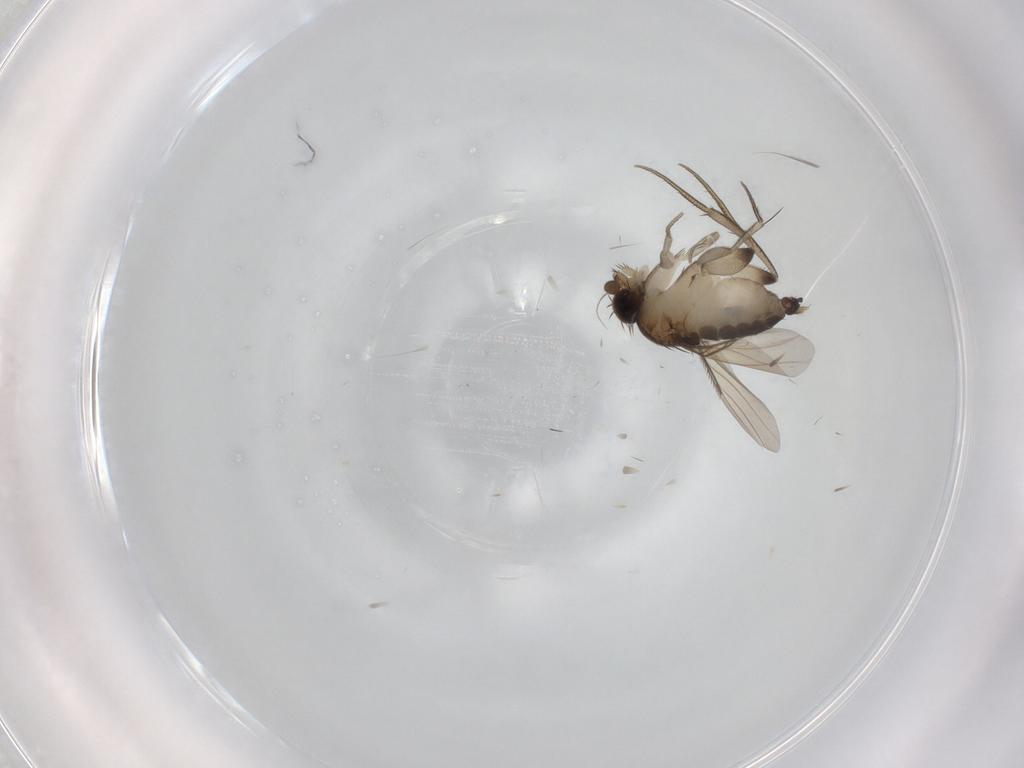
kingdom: Animalia
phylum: Arthropoda
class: Insecta
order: Diptera
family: Phoridae
